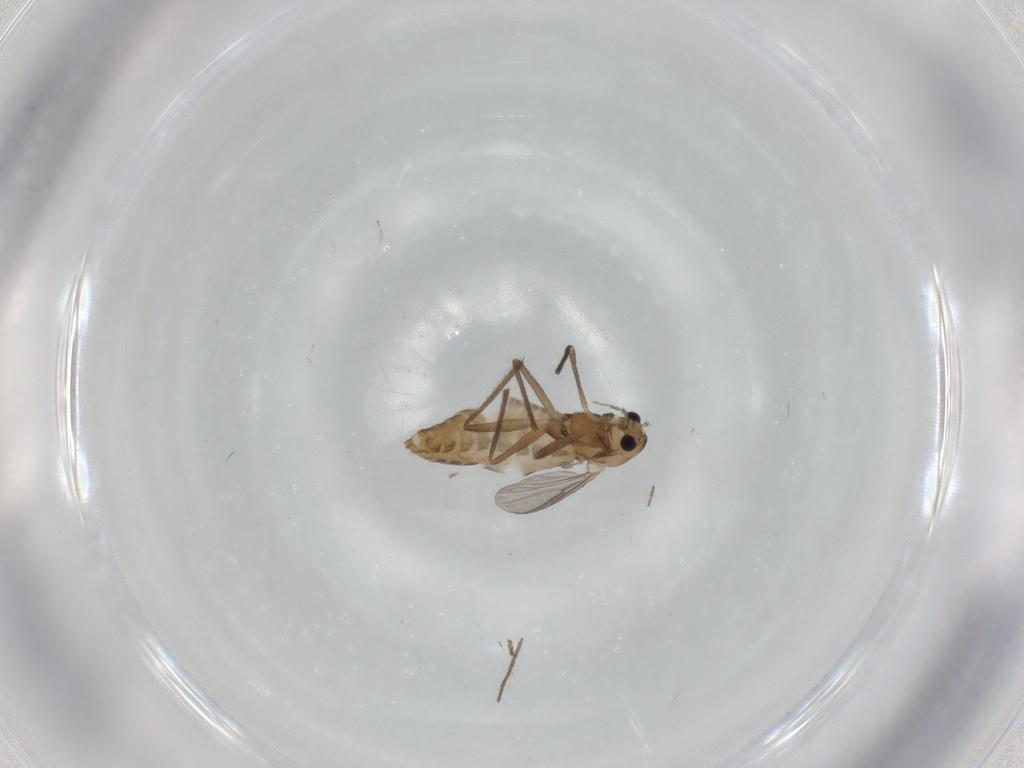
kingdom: Animalia
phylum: Arthropoda
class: Insecta
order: Diptera
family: Chironomidae
